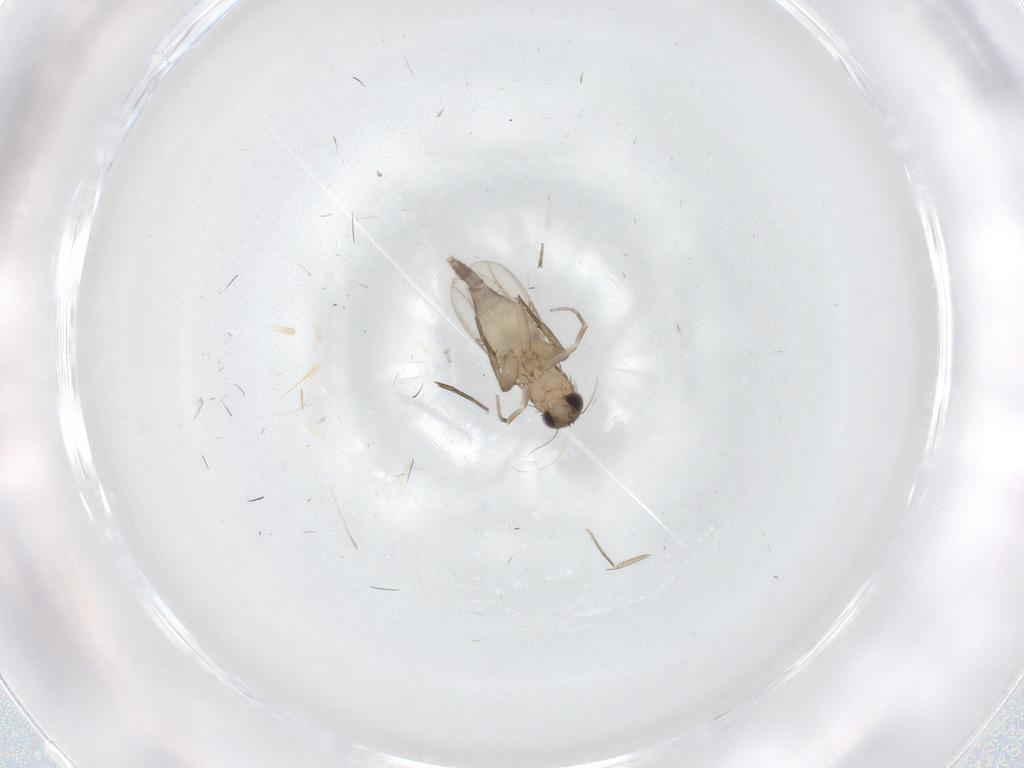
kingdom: Animalia
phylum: Arthropoda
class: Insecta
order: Diptera
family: Phoridae
